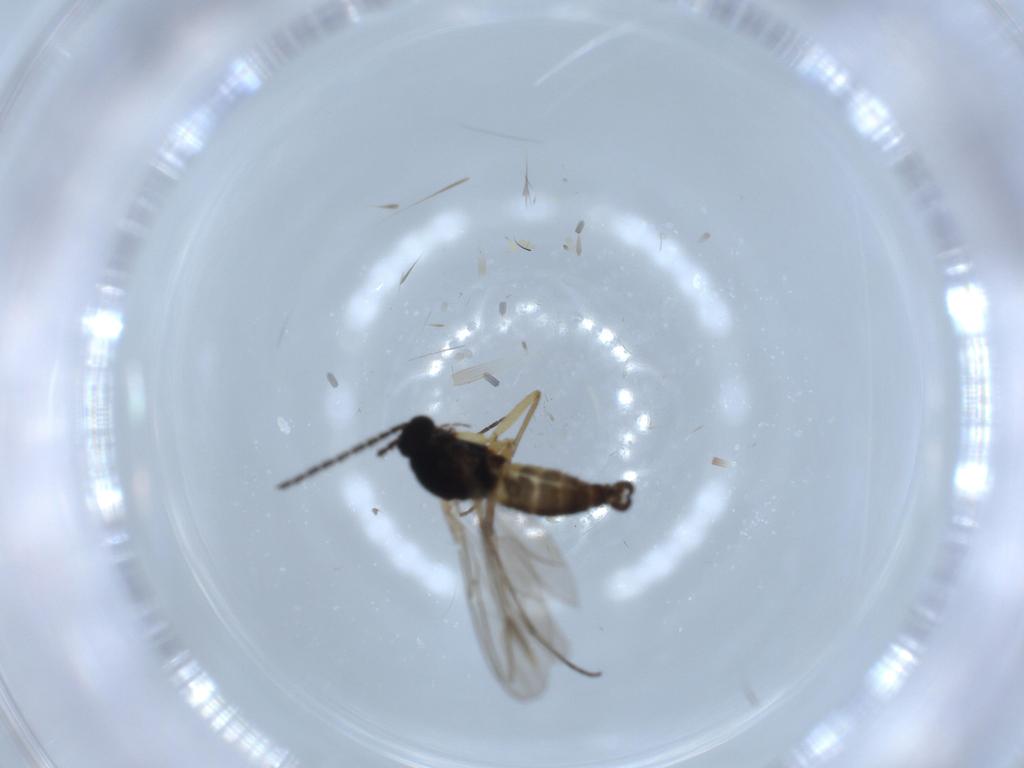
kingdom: Animalia
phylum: Arthropoda
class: Insecta
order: Diptera
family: Sciaridae
